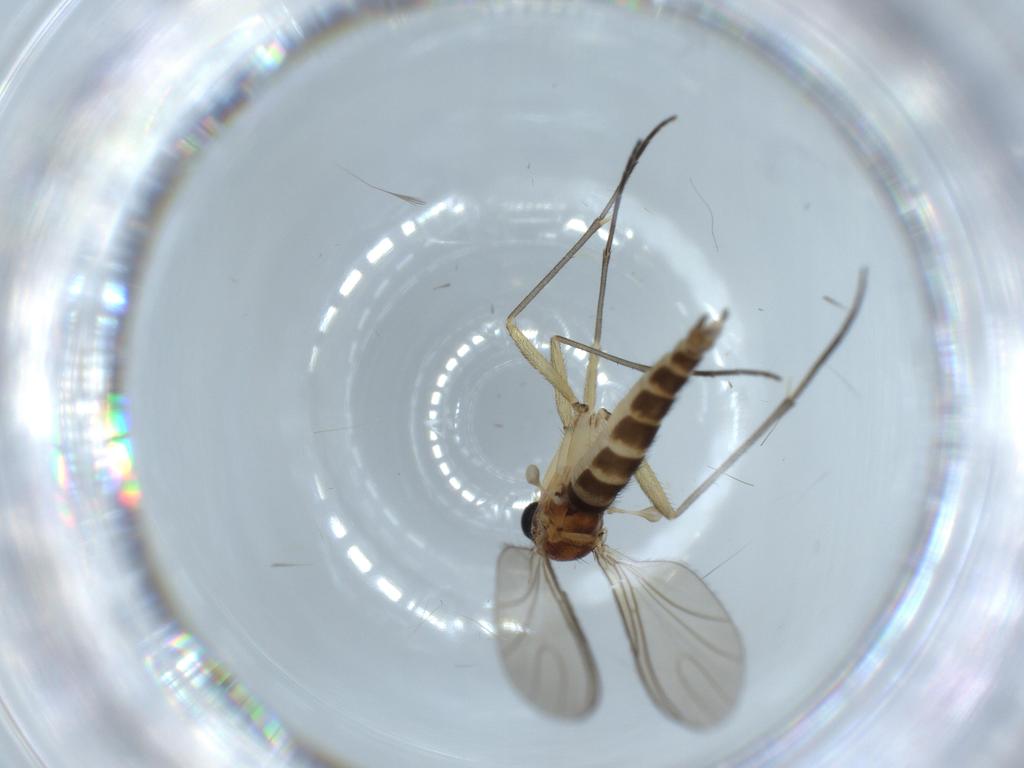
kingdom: Animalia
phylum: Arthropoda
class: Insecta
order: Diptera
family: Sciaridae
